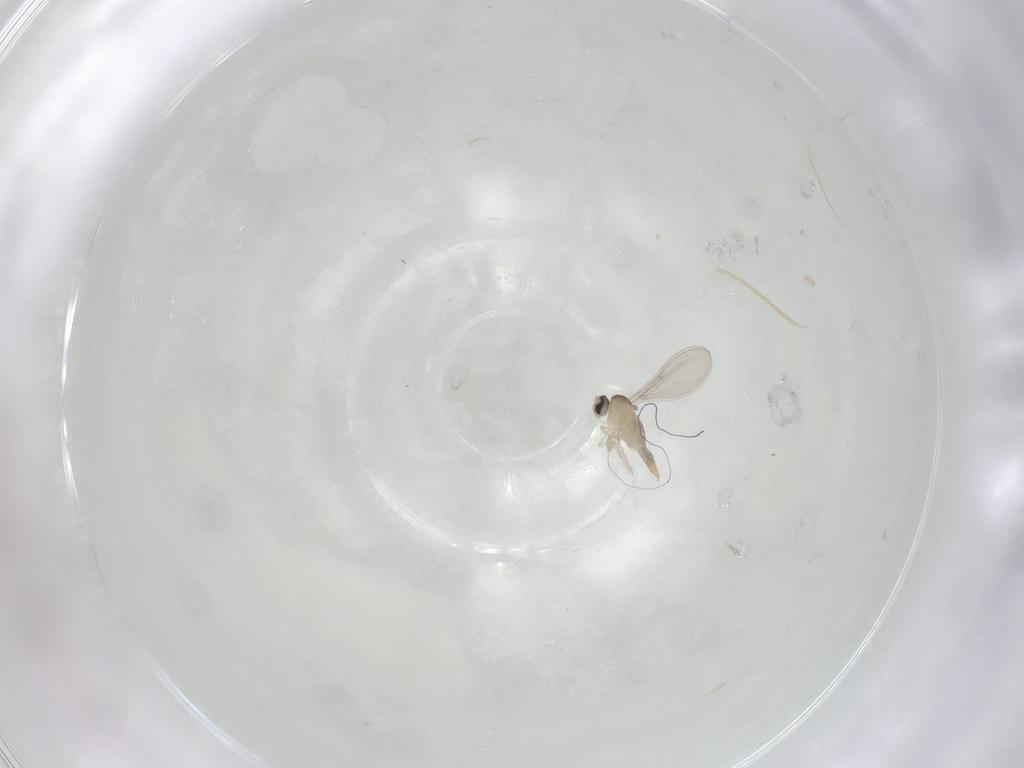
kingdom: Animalia
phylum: Arthropoda
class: Insecta
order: Diptera
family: Cecidomyiidae
